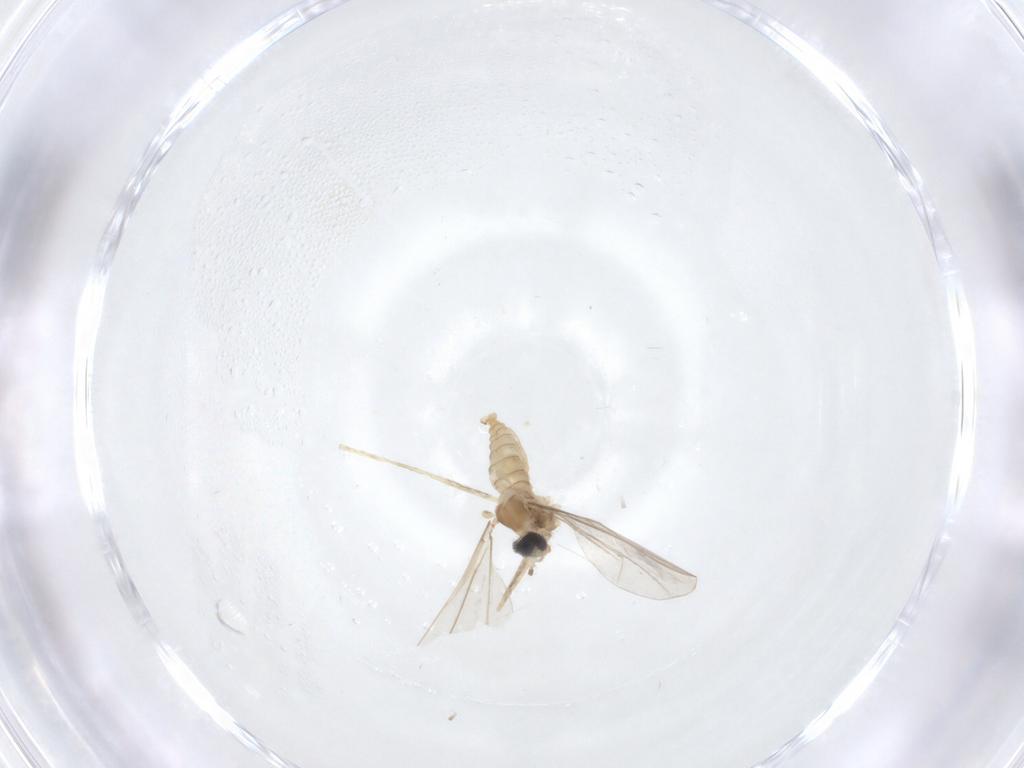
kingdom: Animalia
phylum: Arthropoda
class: Insecta
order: Diptera
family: Cecidomyiidae
